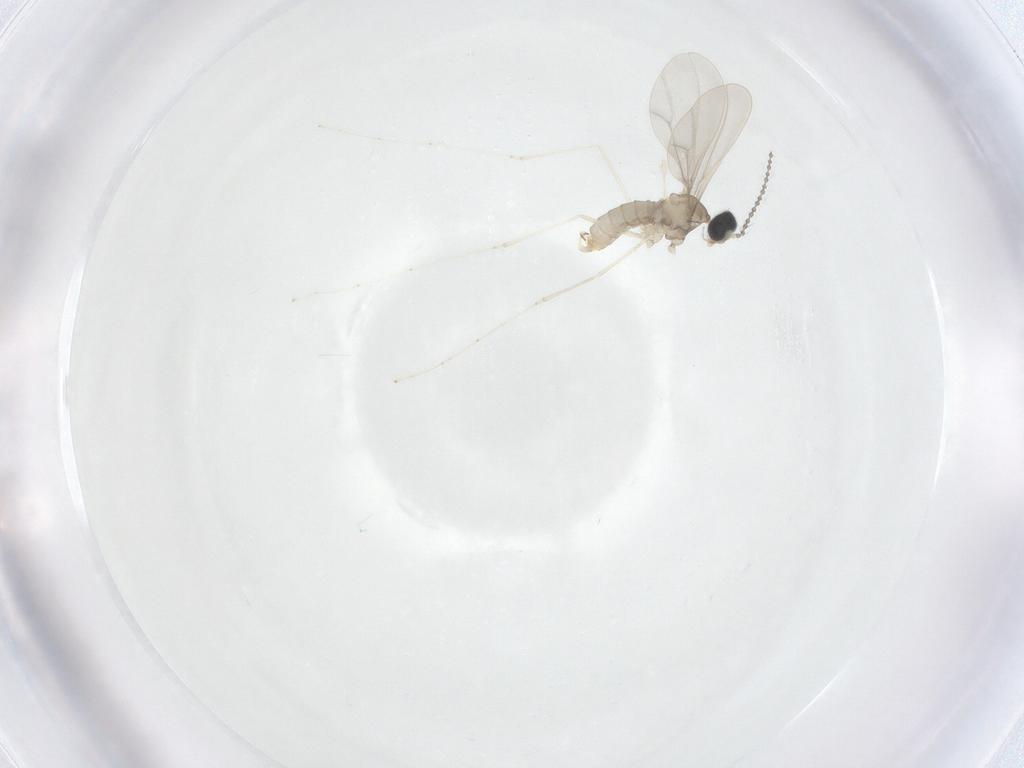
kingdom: Animalia
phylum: Arthropoda
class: Insecta
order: Diptera
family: Cecidomyiidae
